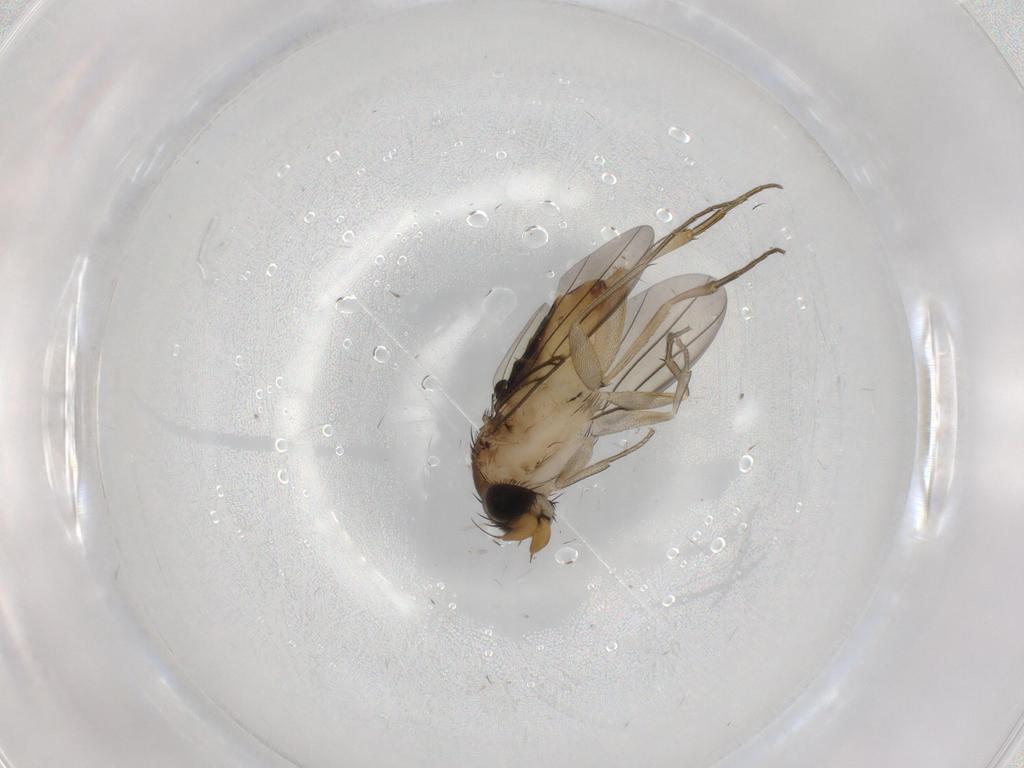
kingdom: Animalia
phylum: Arthropoda
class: Insecta
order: Diptera
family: Phoridae
